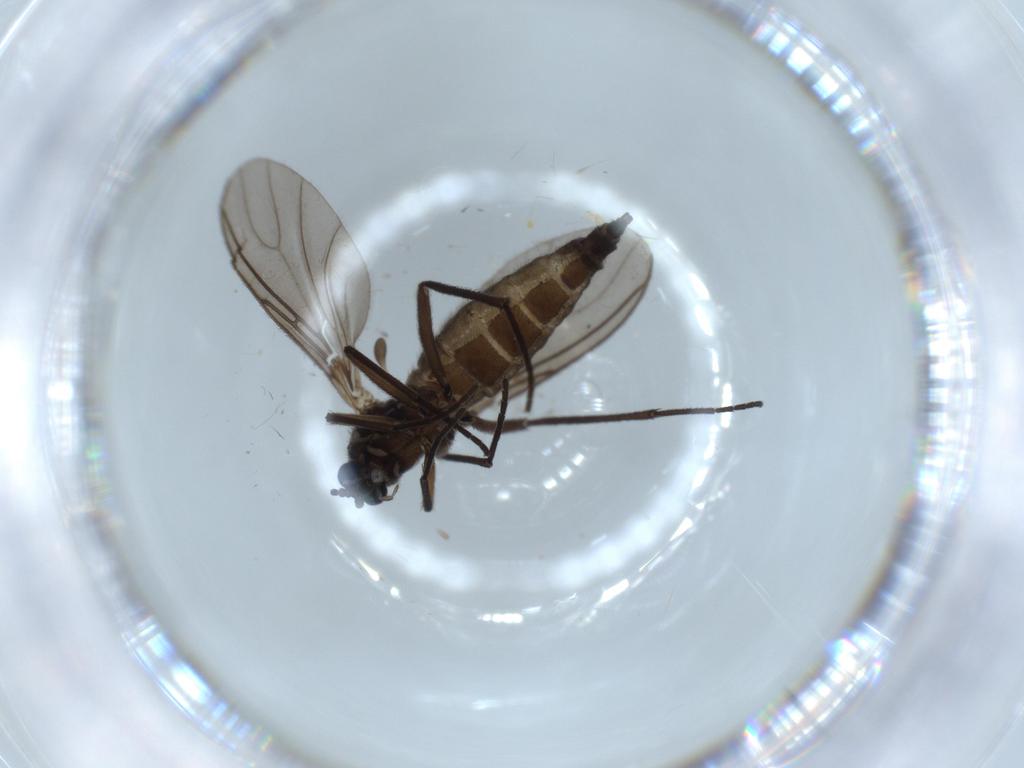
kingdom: Animalia
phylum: Arthropoda
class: Insecta
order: Diptera
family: Sciaridae
